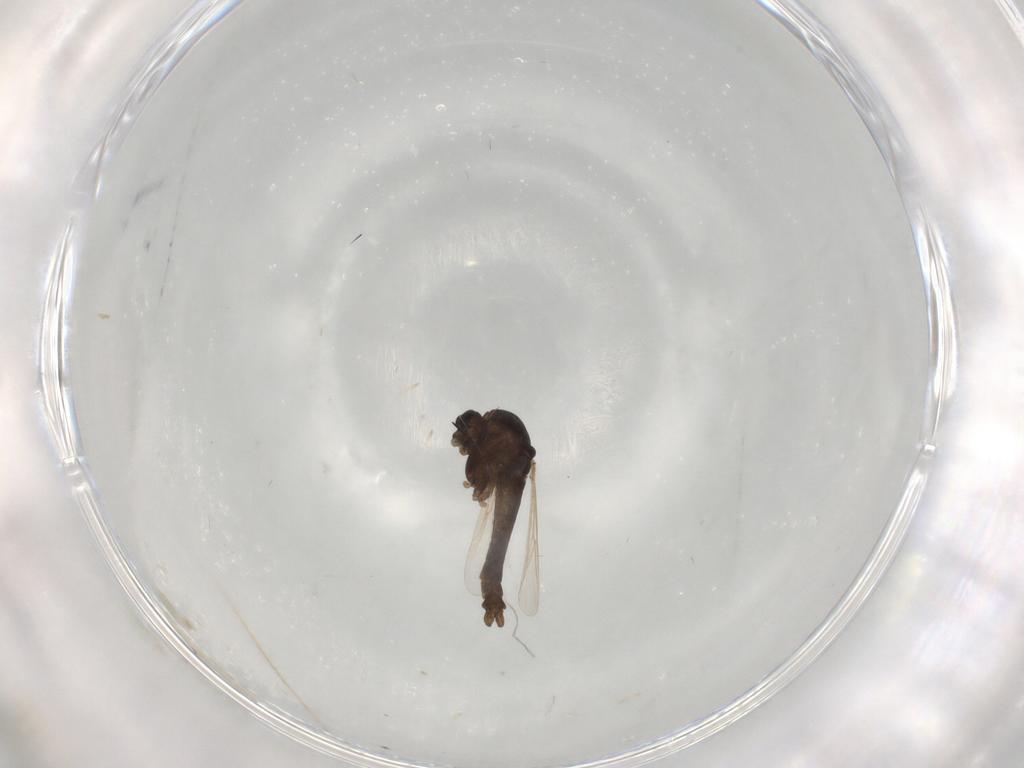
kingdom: Animalia
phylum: Arthropoda
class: Insecta
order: Diptera
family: Chironomidae
